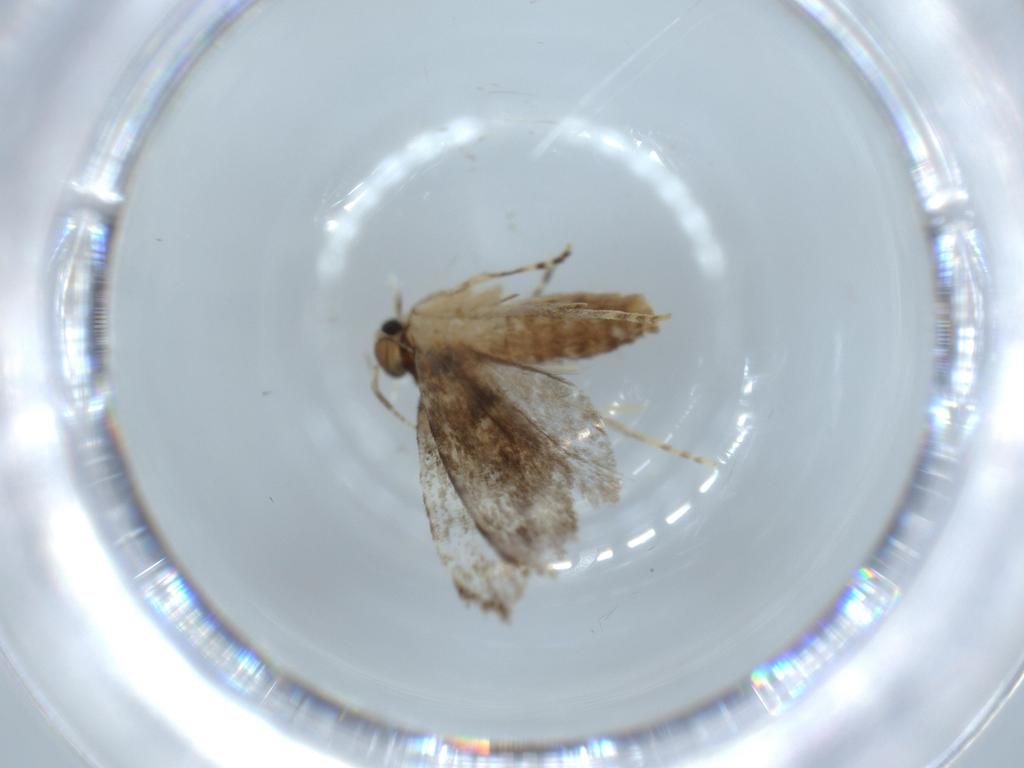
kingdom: Animalia
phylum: Arthropoda
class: Insecta
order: Lepidoptera
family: Tineidae
